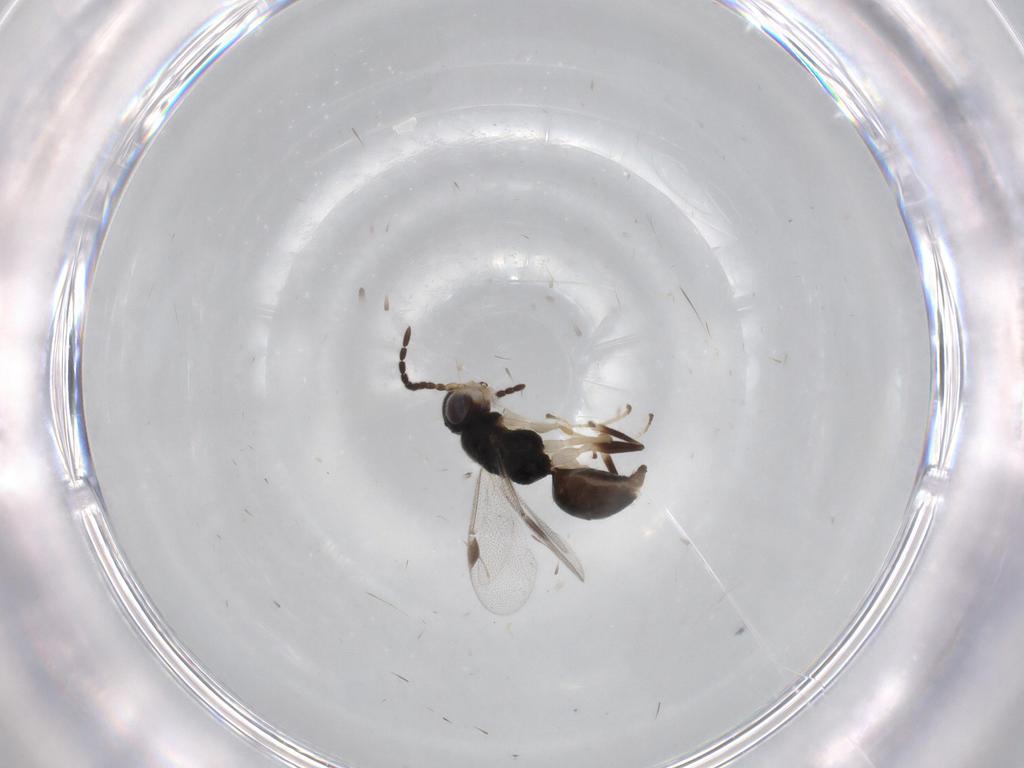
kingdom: Animalia
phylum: Arthropoda
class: Insecta
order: Hymenoptera
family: Dryinidae
